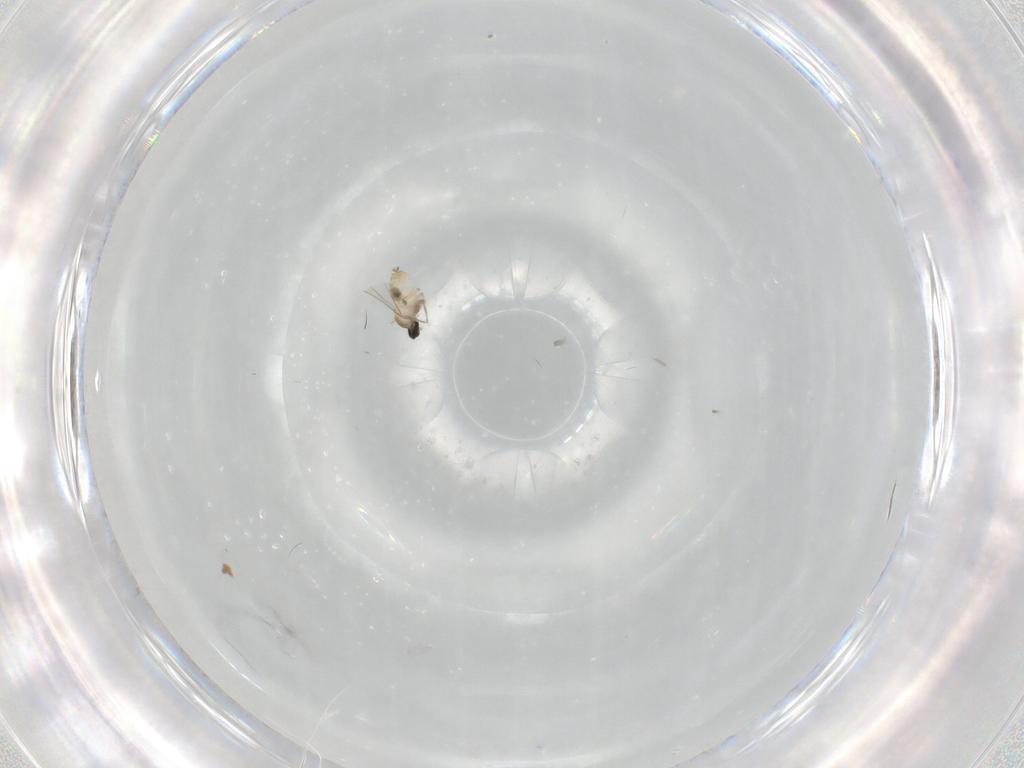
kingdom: Animalia
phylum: Arthropoda
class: Insecta
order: Diptera
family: Cecidomyiidae
